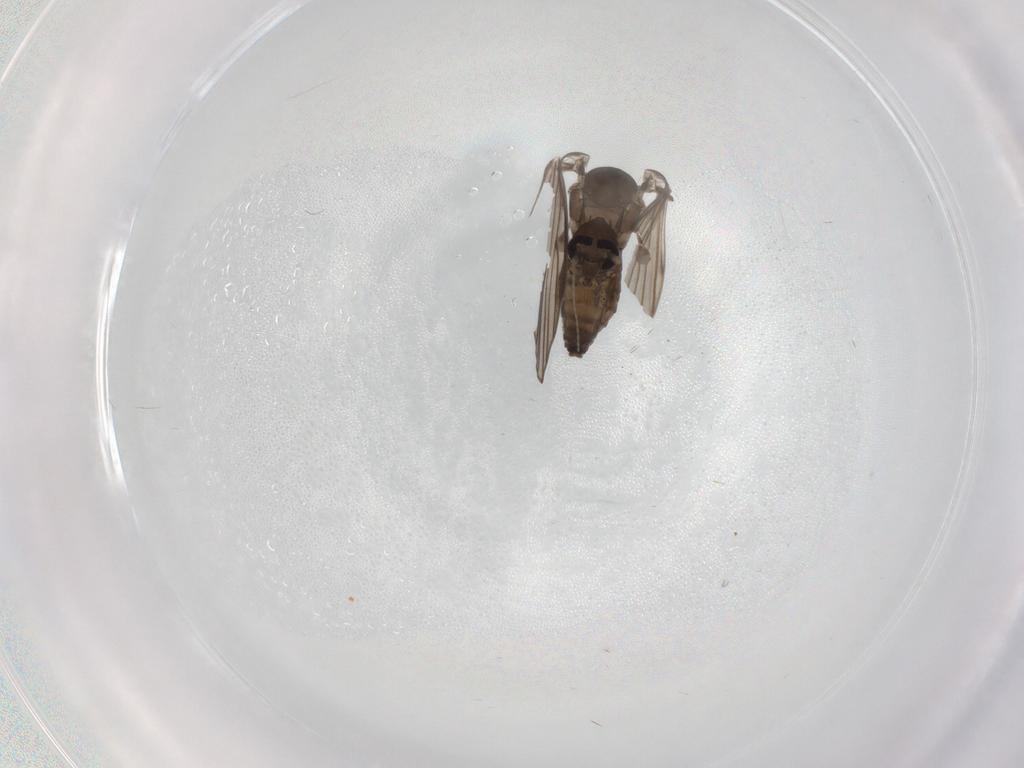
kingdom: Animalia
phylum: Arthropoda
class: Insecta
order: Diptera
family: Psychodidae
